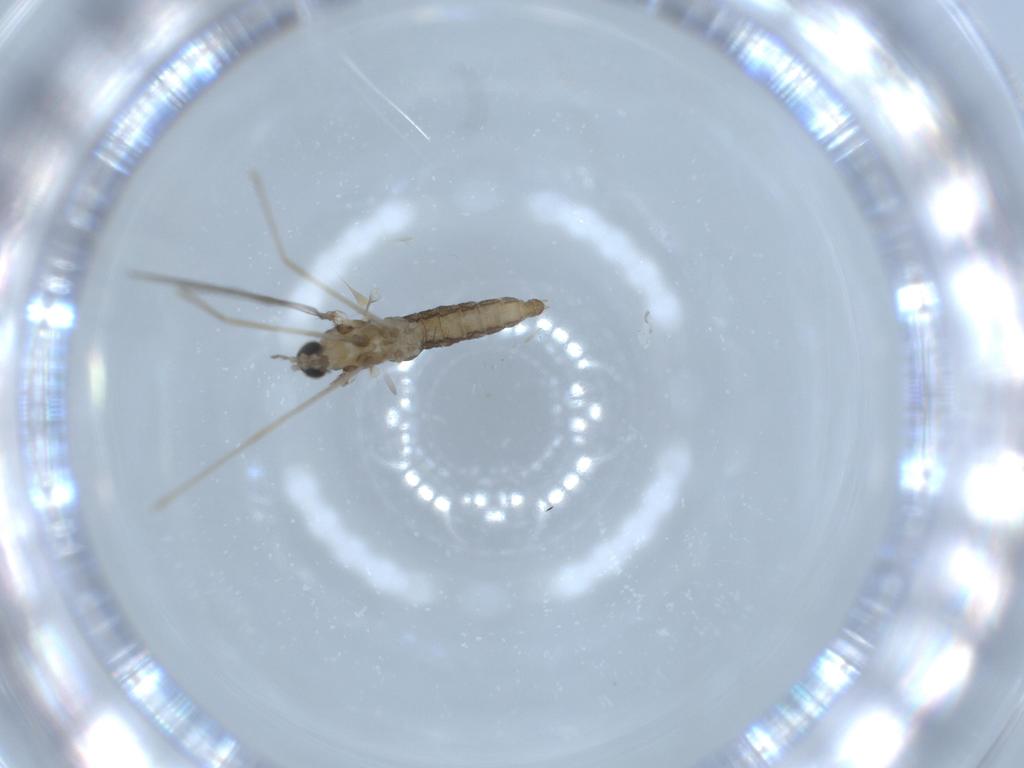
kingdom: Animalia
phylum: Arthropoda
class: Insecta
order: Diptera
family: Cecidomyiidae
